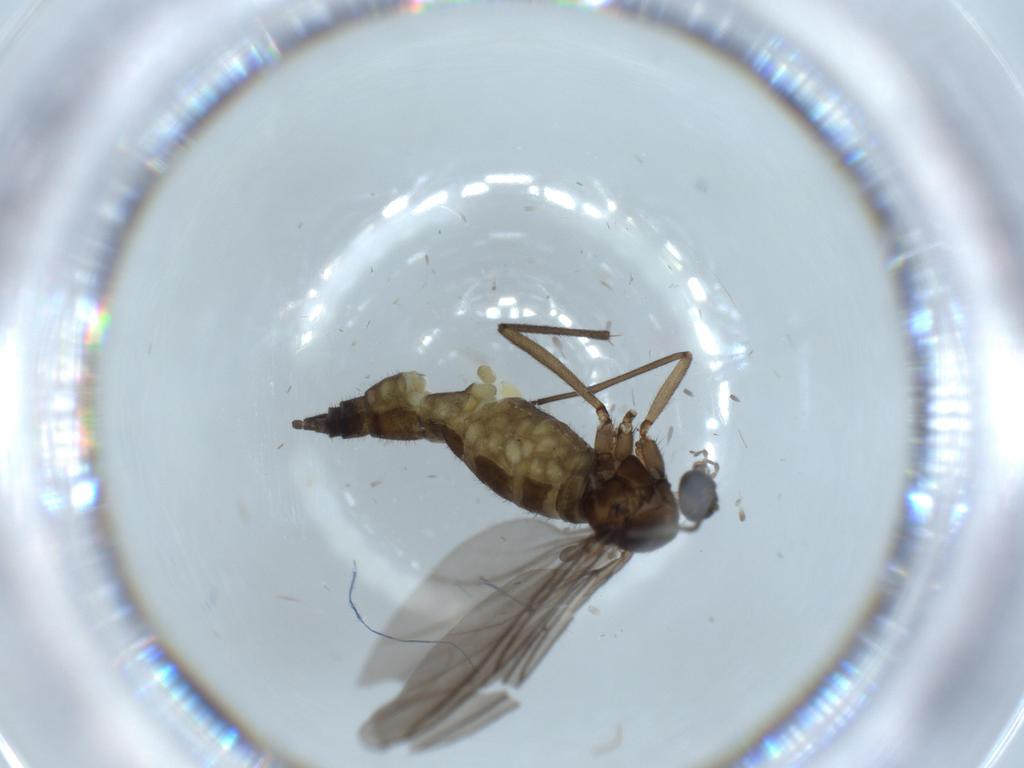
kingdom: Animalia
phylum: Arthropoda
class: Insecta
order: Diptera
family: Sciaridae
